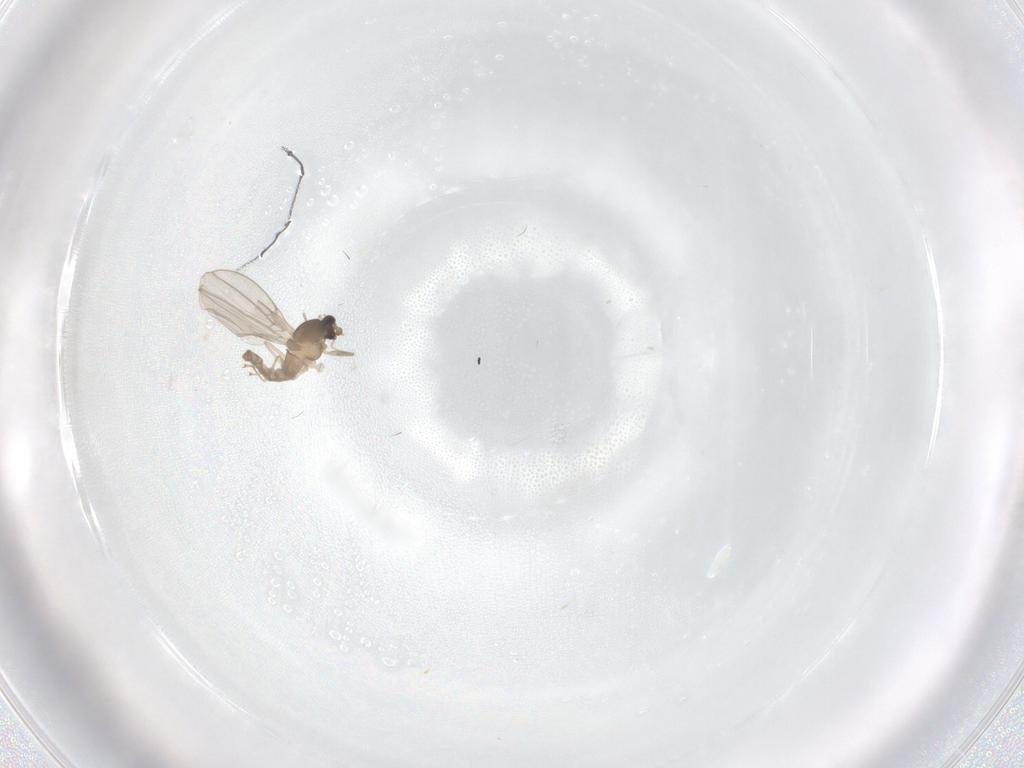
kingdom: Animalia
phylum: Arthropoda
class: Insecta
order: Diptera
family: Cecidomyiidae
